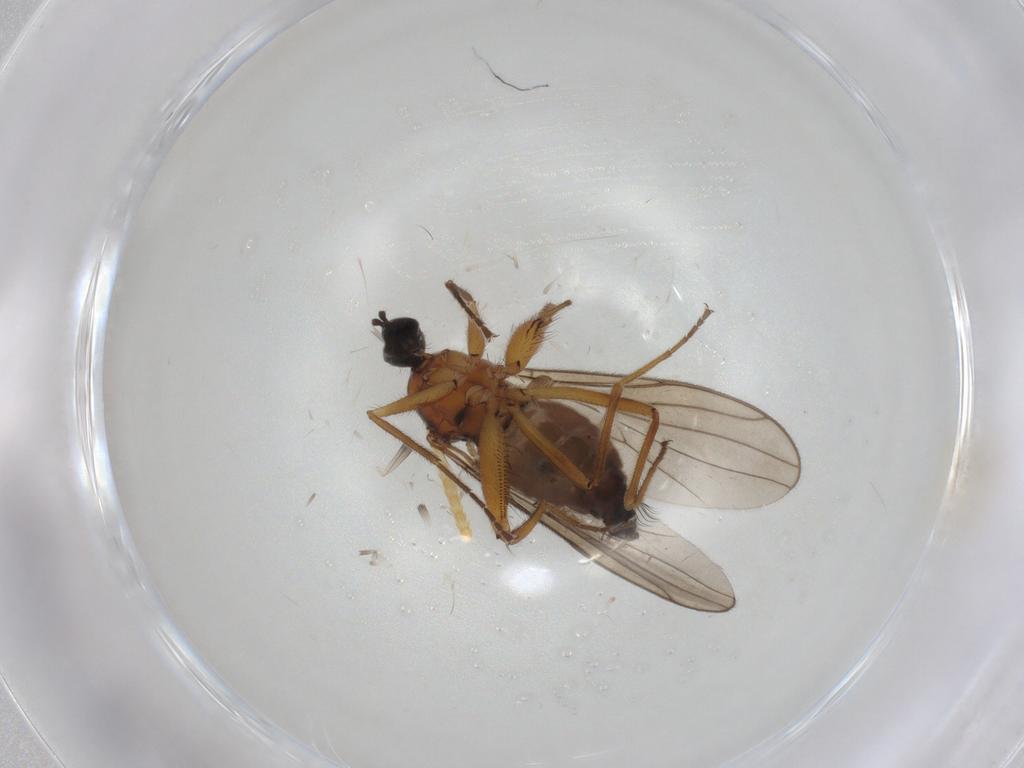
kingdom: Animalia
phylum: Arthropoda
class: Insecta
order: Diptera
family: Hybotidae
